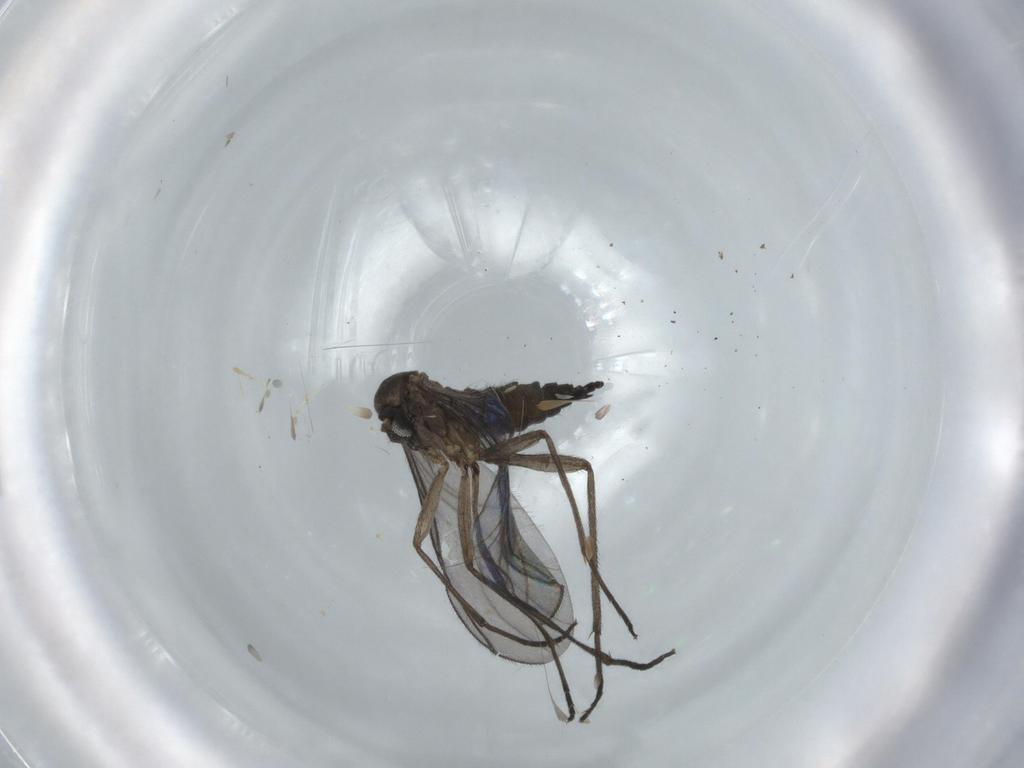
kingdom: Animalia
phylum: Arthropoda
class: Insecta
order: Diptera
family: Sciaridae
